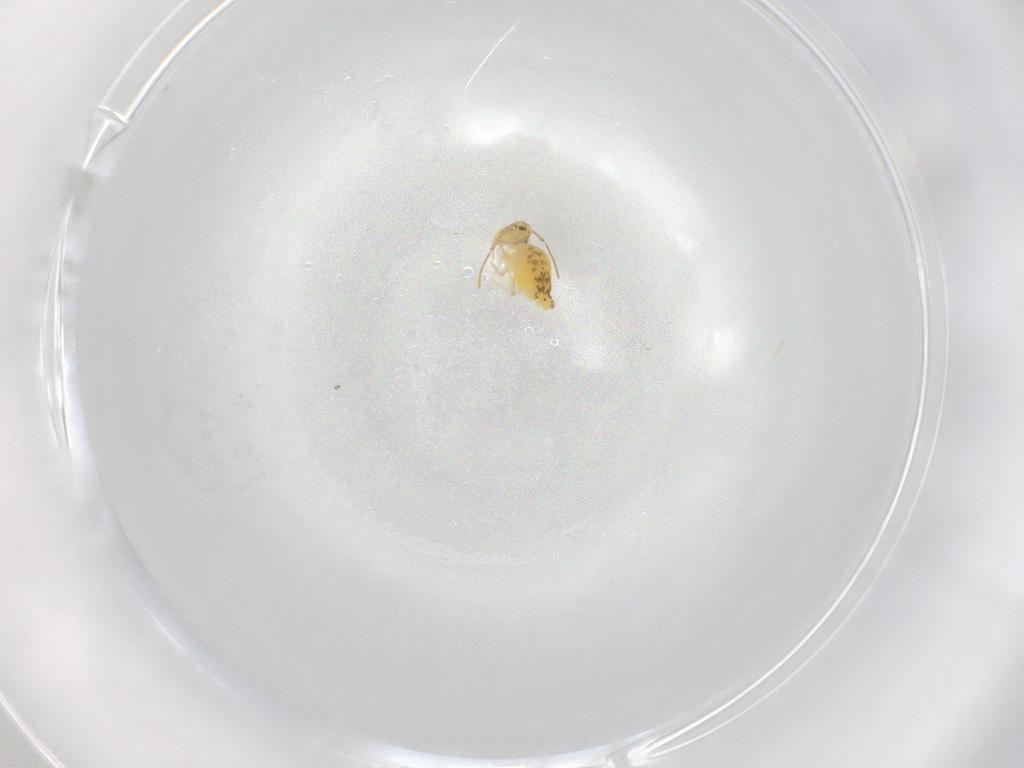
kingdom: Animalia
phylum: Arthropoda
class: Collembola
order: Symphypleona
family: Bourletiellidae
